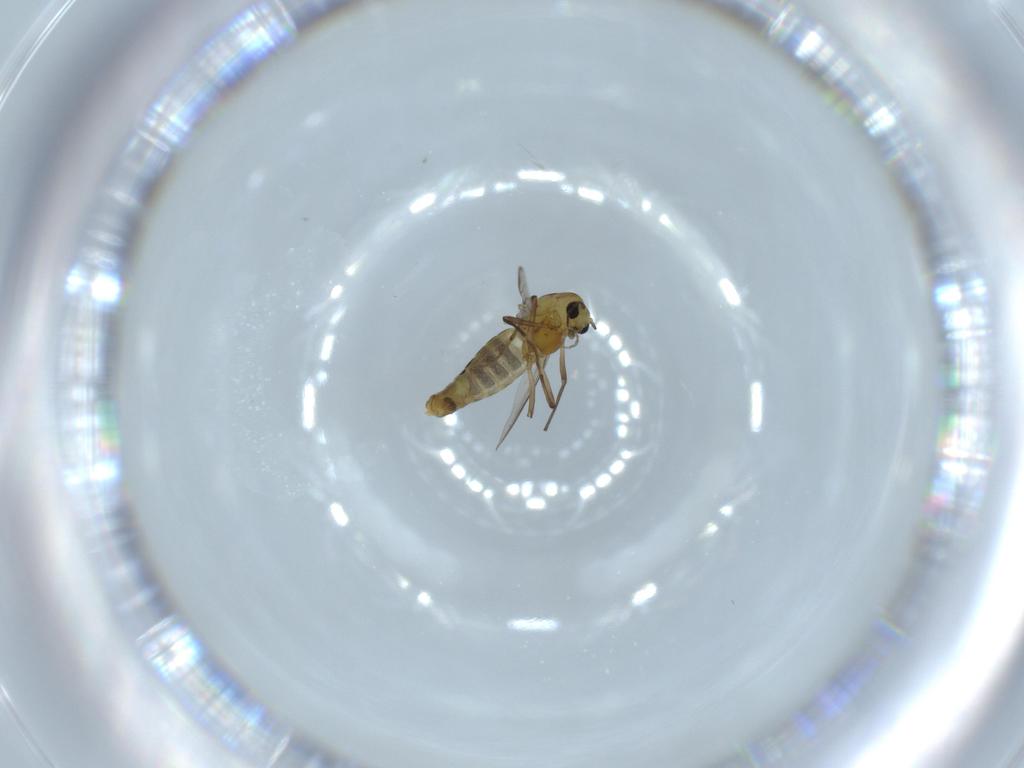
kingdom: Animalia
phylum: Arthropoda
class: Insecta
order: Diptera
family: Chironomidae
